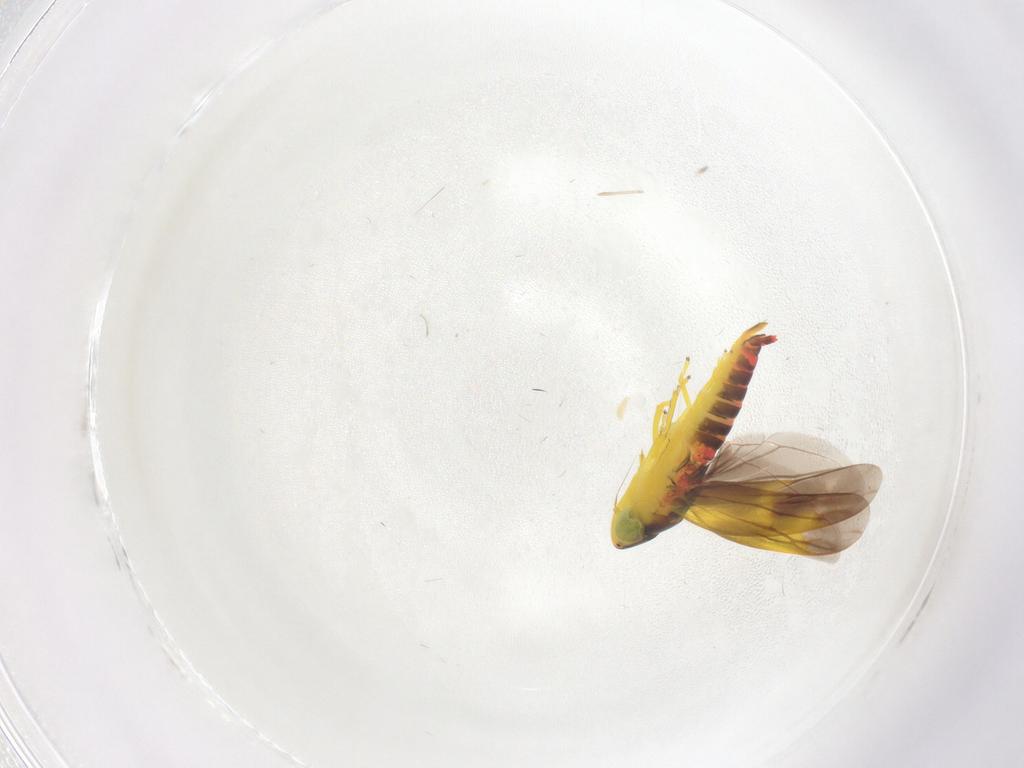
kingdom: Animalia
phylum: Arthropoda
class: Insecta
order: Hemiptera
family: Cicadellidae
